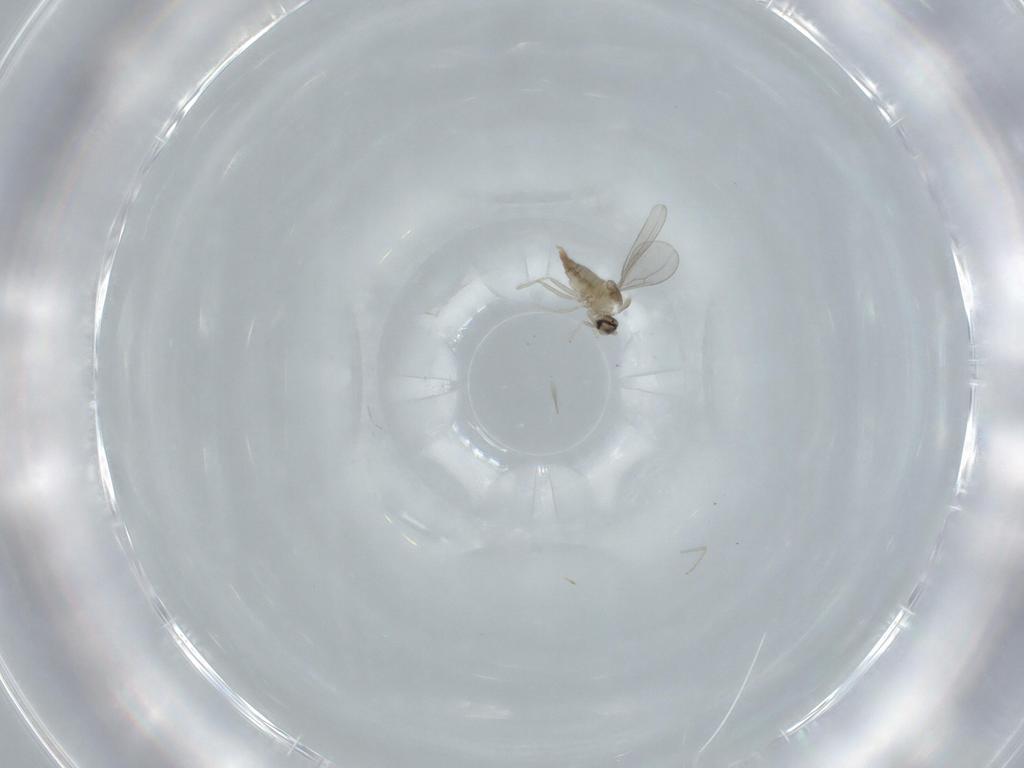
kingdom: Animalia
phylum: Arthropoda
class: Insecta
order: Diptera
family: Cecidomyiidae
